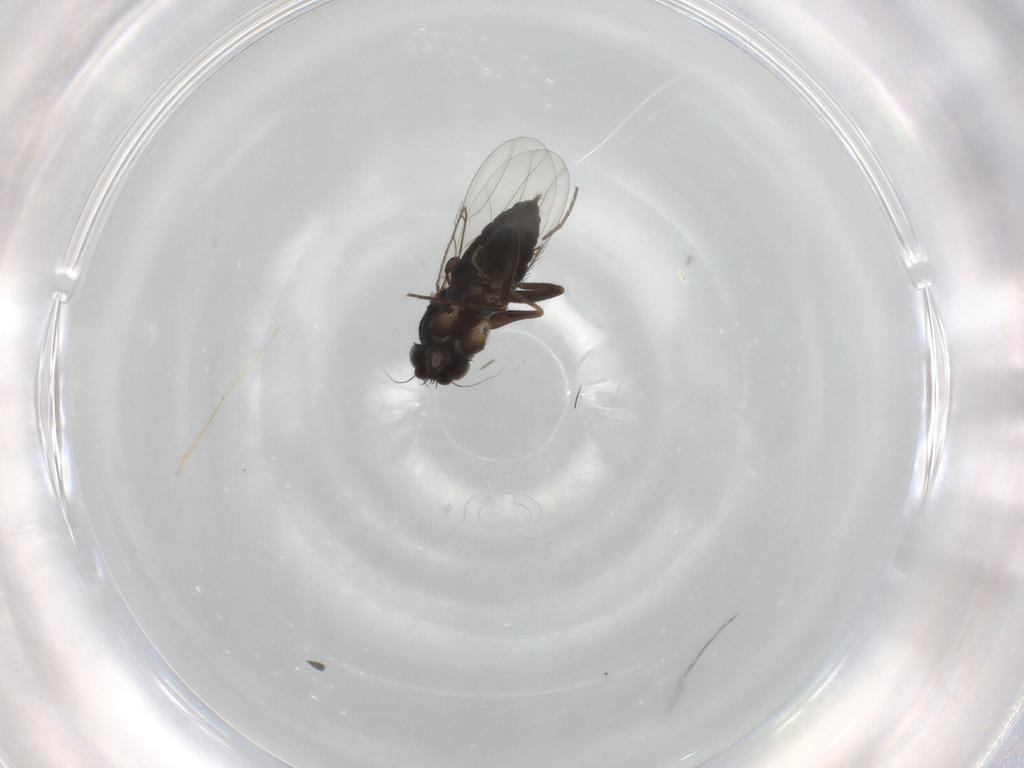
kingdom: Animalia
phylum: Arthropoda
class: Insecta
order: Diptera
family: Phoridae
